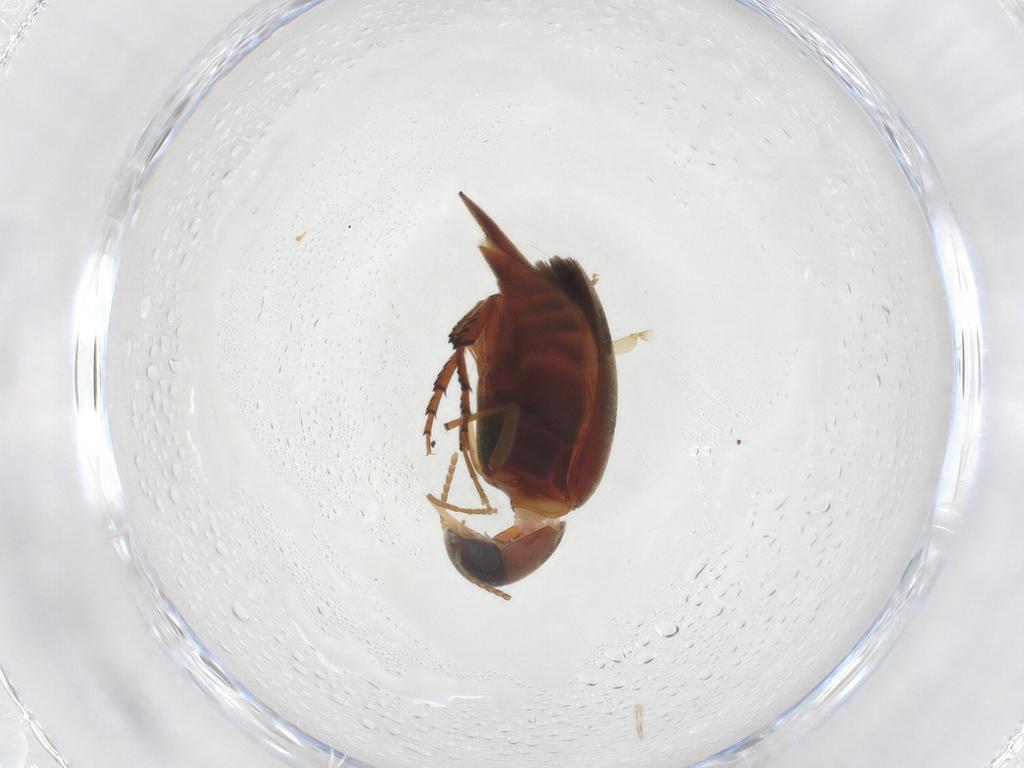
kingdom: Animalia
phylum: Arthropoda
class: Insecta
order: Coleoptera
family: Mordellidae
